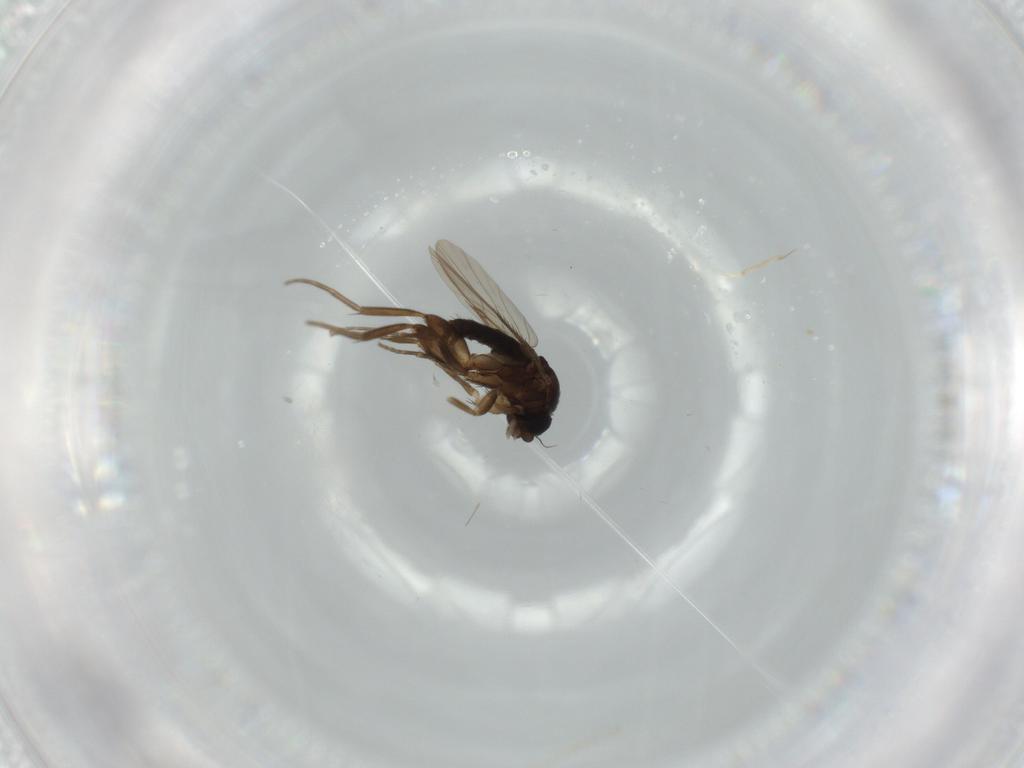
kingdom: Animalia
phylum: Arthropoda
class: Insecta
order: Diptera
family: Phoridae
